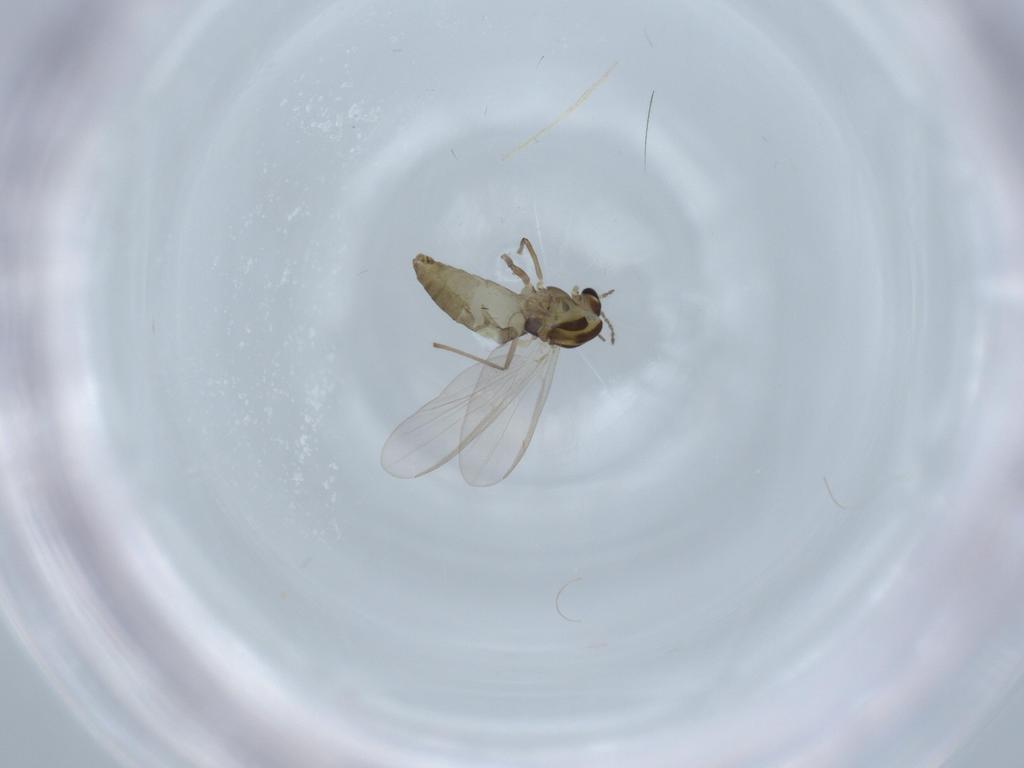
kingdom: Animalia
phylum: Arthropoda
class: Insecta
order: Diptera
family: Chironomidae
